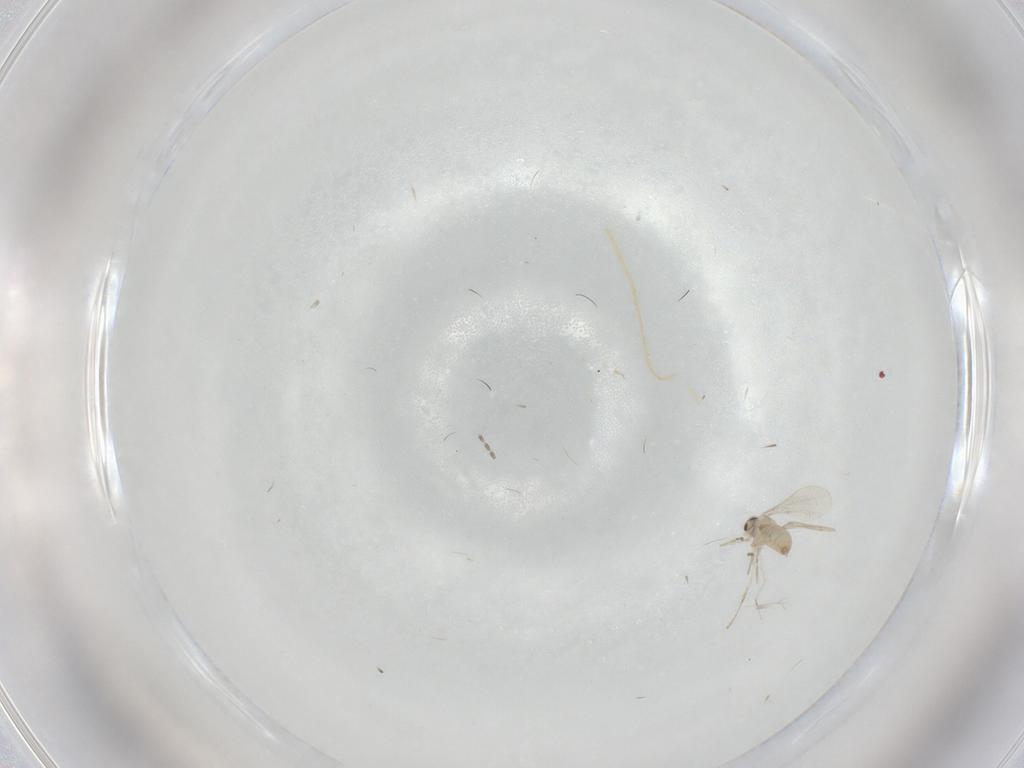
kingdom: Animalia
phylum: Arthropoda
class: Insecta
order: Diptera
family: Cecidomyiidae
